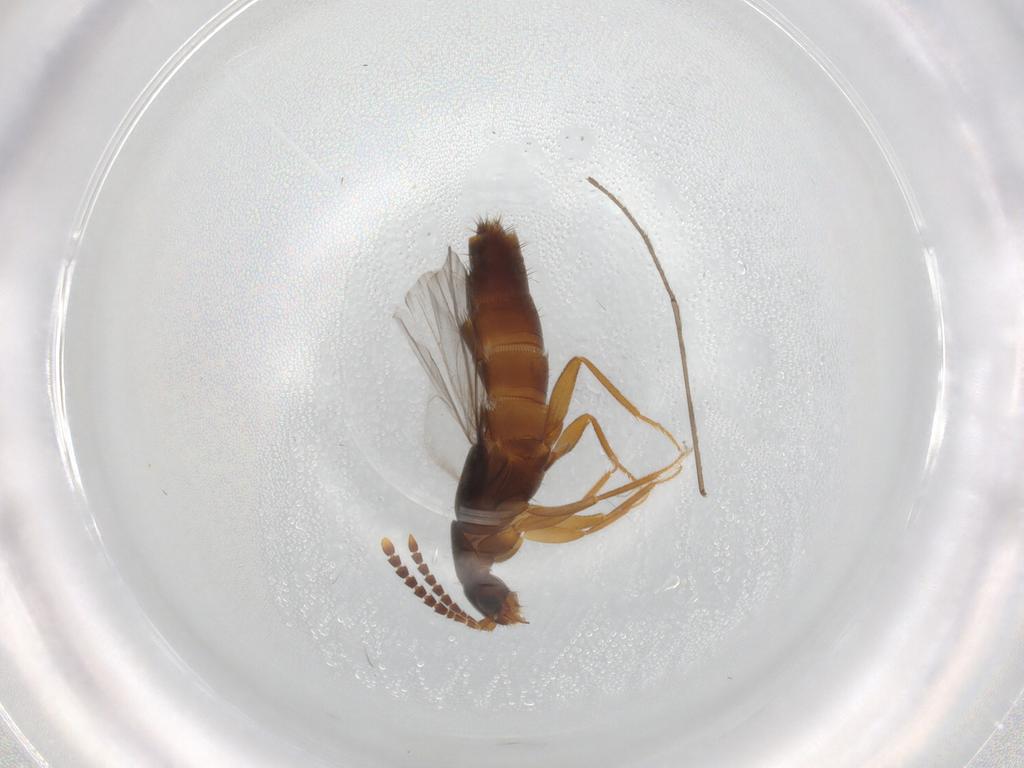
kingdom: Animalia
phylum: Arthropoda
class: Insecta
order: Coleoptera
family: Staphylinidae
